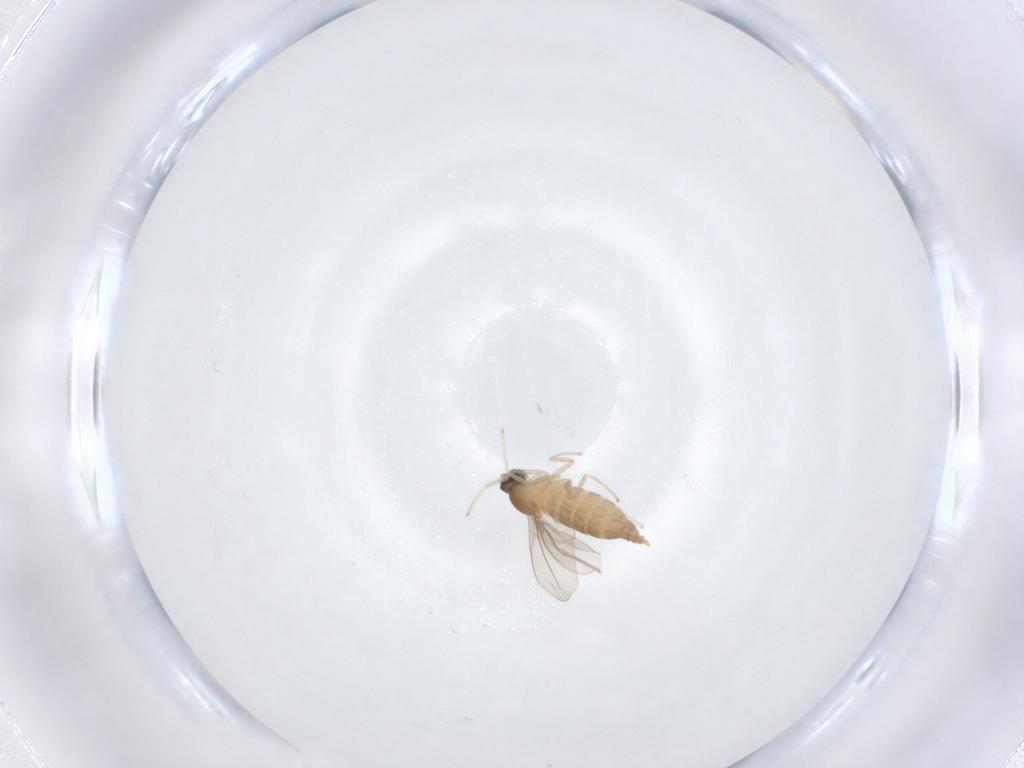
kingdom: Animalia
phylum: Arthropoda
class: Insecta
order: Diptera
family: Cecidomyiidae
